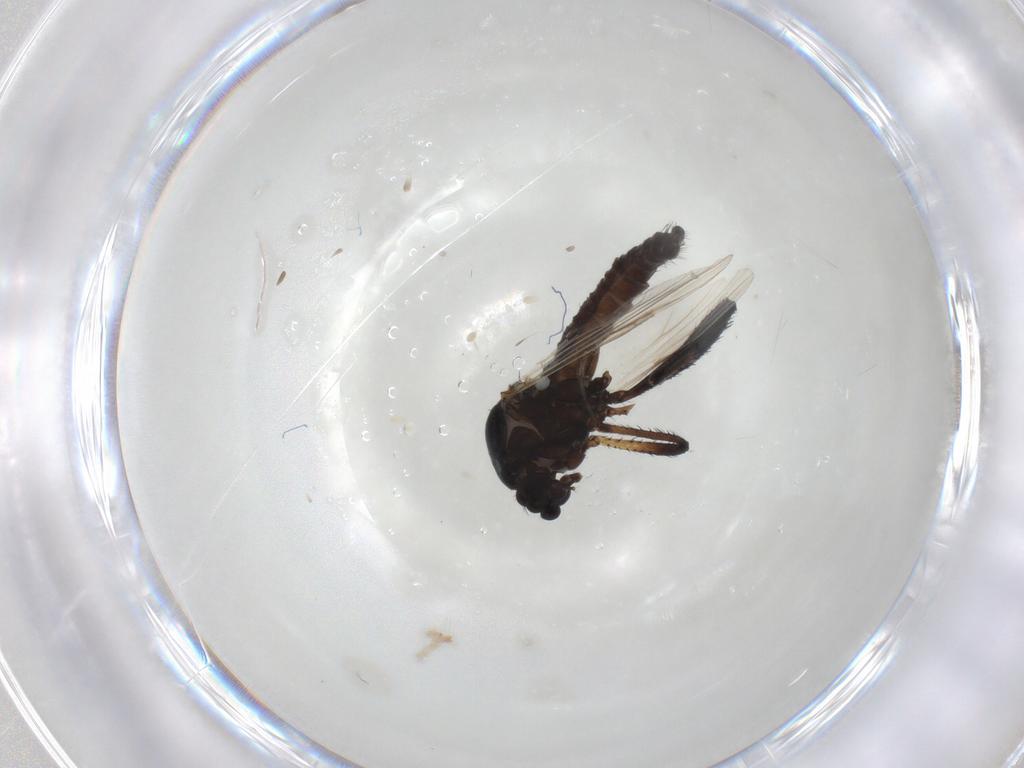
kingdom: Animalia
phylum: Arthropoda
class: Insecta
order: Diptera
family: Ceratopogonidae
